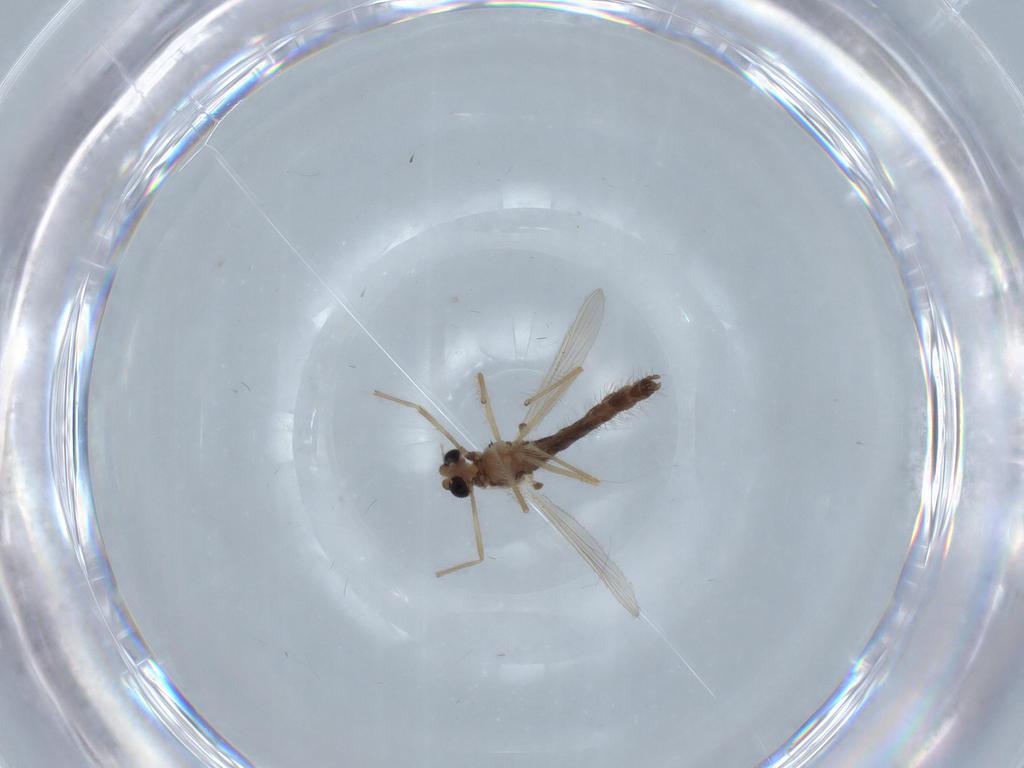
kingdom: Animalia
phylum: Arthropoda
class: Insecta
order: Diptera
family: Chironomidae
